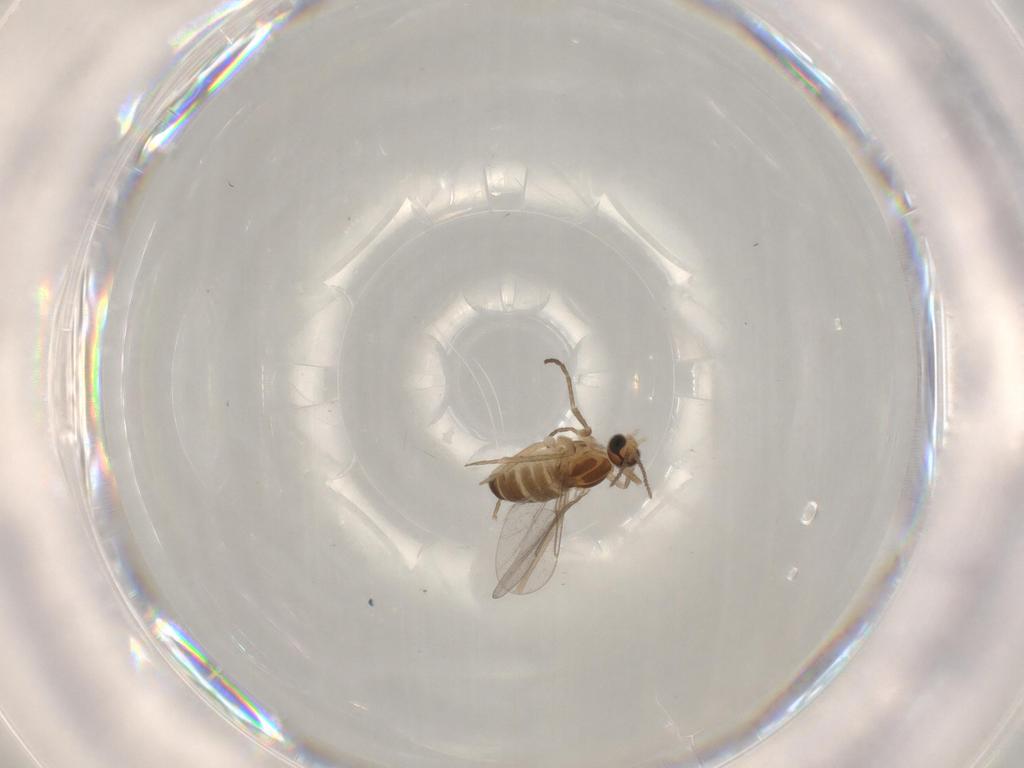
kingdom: Animalia
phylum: Arthropoda
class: Insecta
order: Diptera
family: Cecidomyiidae
